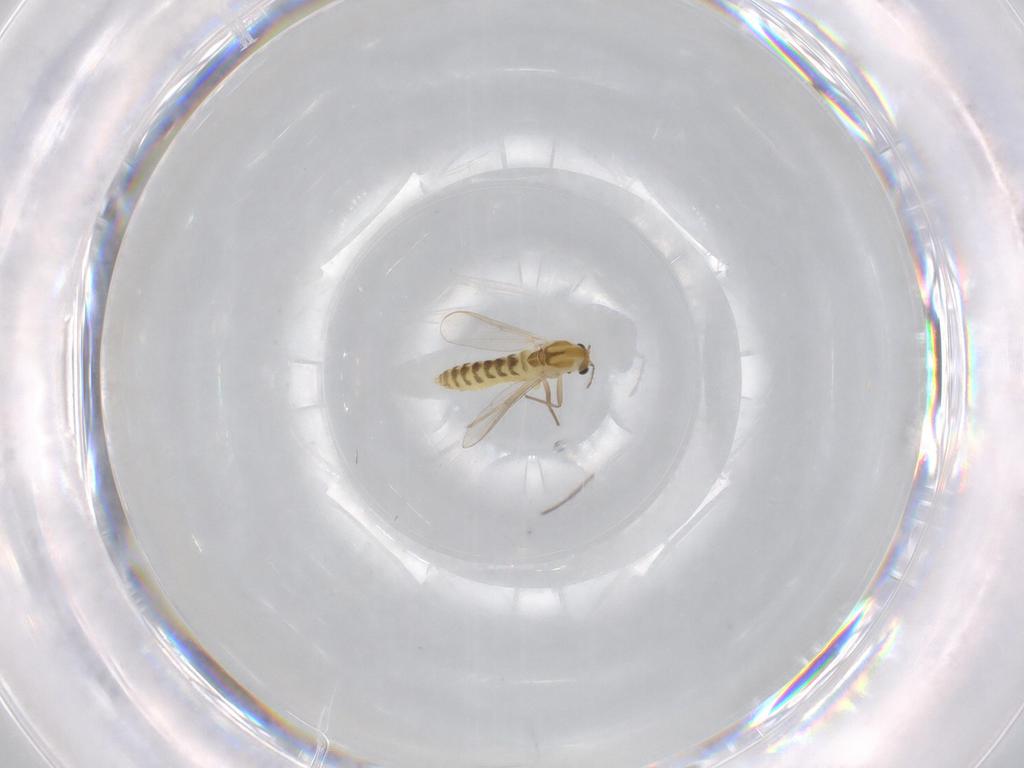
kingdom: Animalia
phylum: Arthropoda
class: Insecta
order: Diptera
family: Chironomidae
